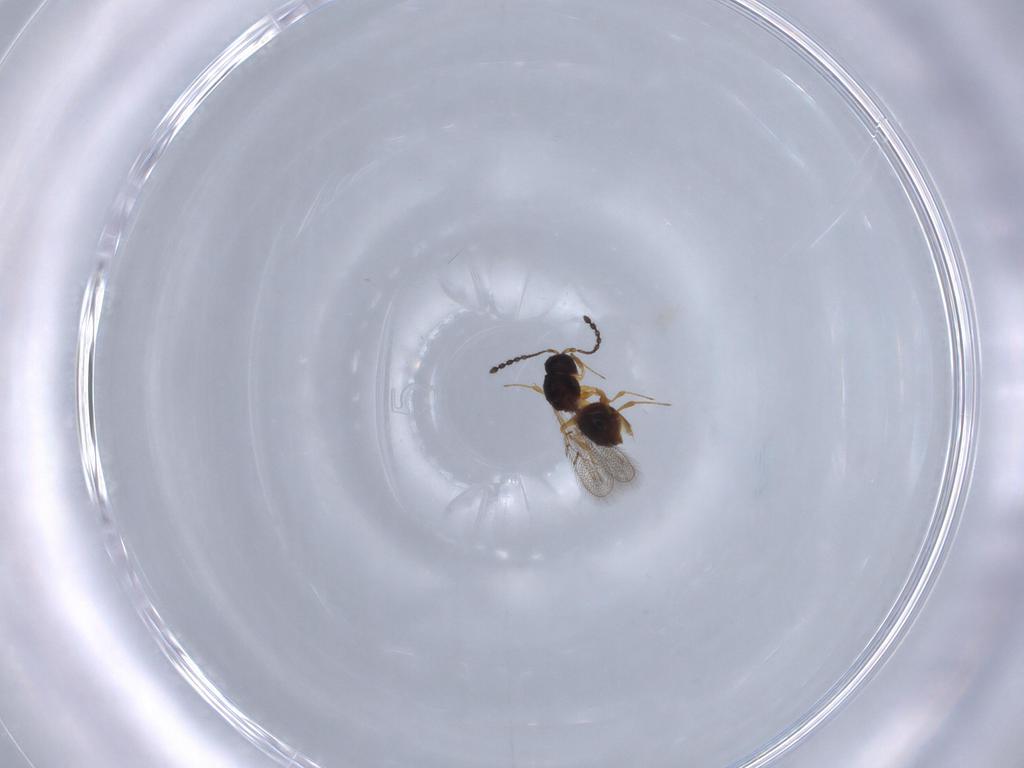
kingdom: Animalia
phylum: Arthropoda
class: Insecta
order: Hymenoptera
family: Figitidae
